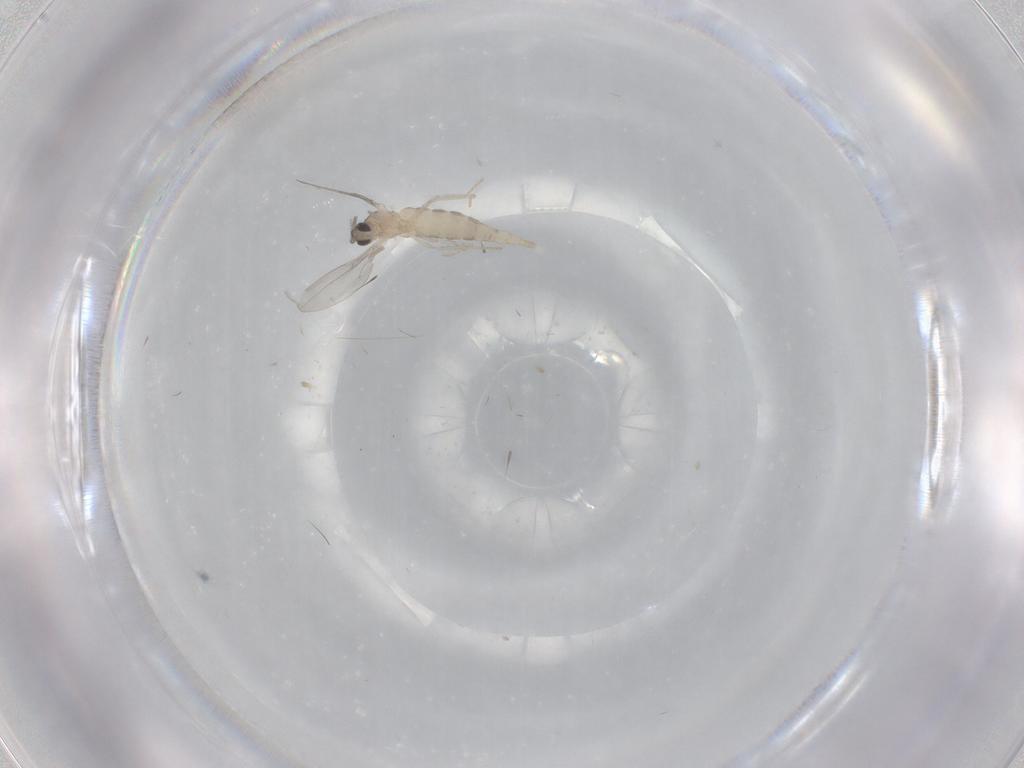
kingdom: Animalia
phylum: Arthropoda
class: Insecta
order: Diptera
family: Cecidomyiidae
